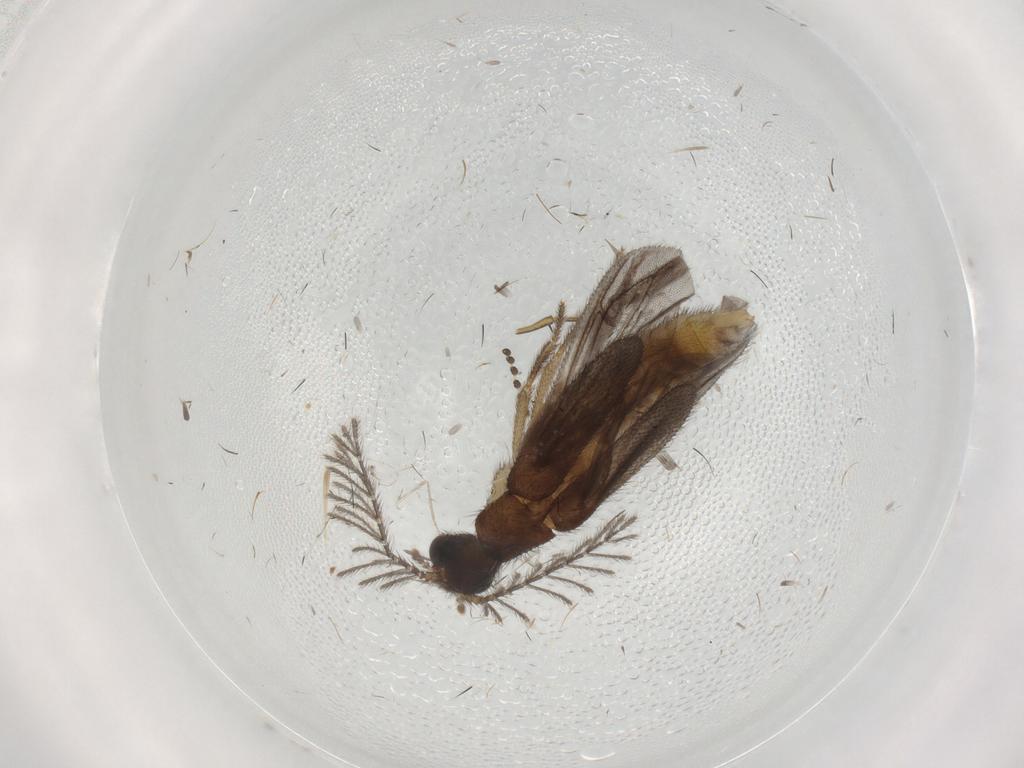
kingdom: Animalia
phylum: Arthropoda
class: Insecta
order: Coleoptera
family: Phengodidae
